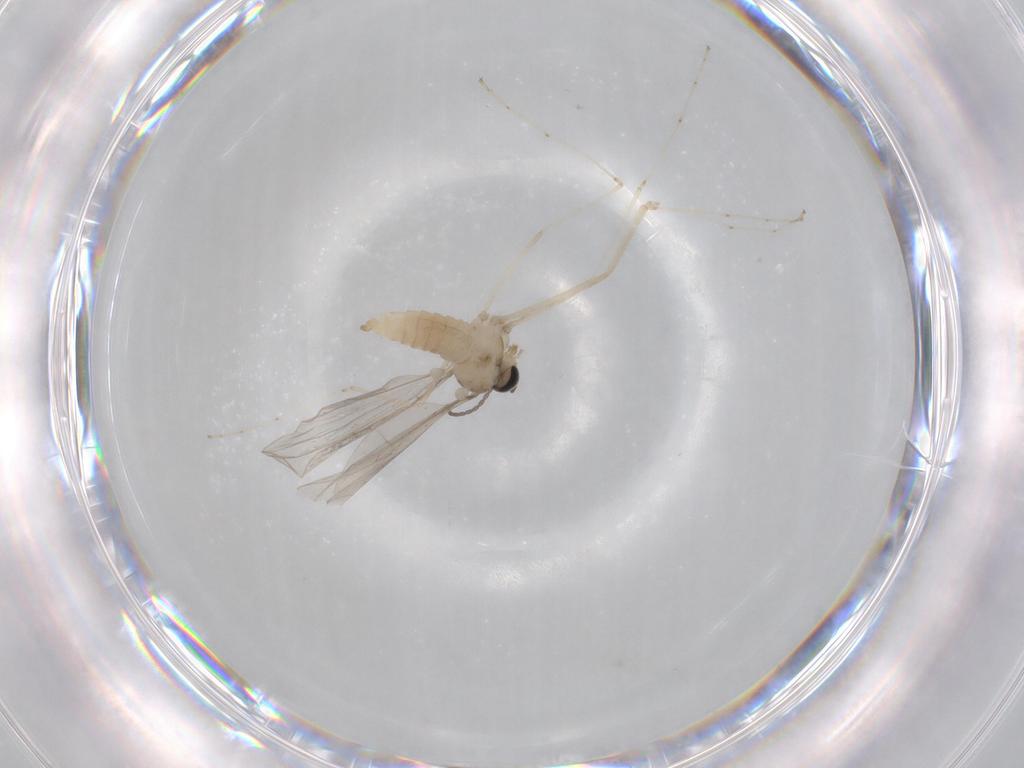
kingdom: Animalia
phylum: Arthropoda
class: Insecta
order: Diptera
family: Cecidomyiidae
